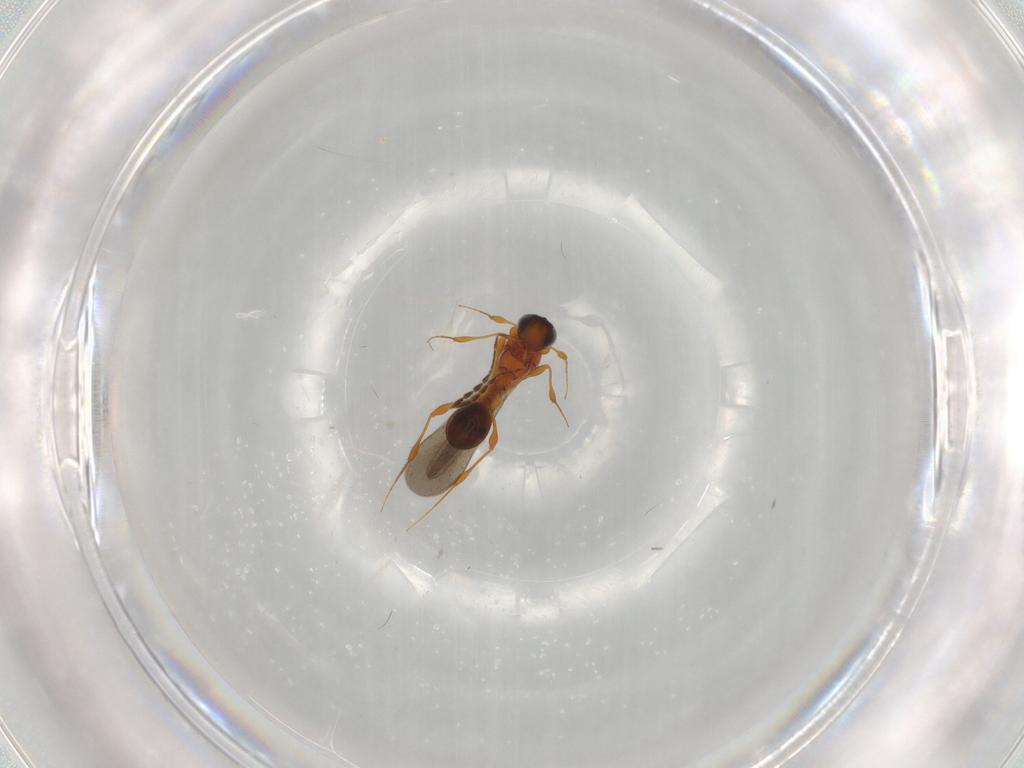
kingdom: Animalia
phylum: Arthropoda
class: Insecta
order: Hymenoptera
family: Platygastridae
